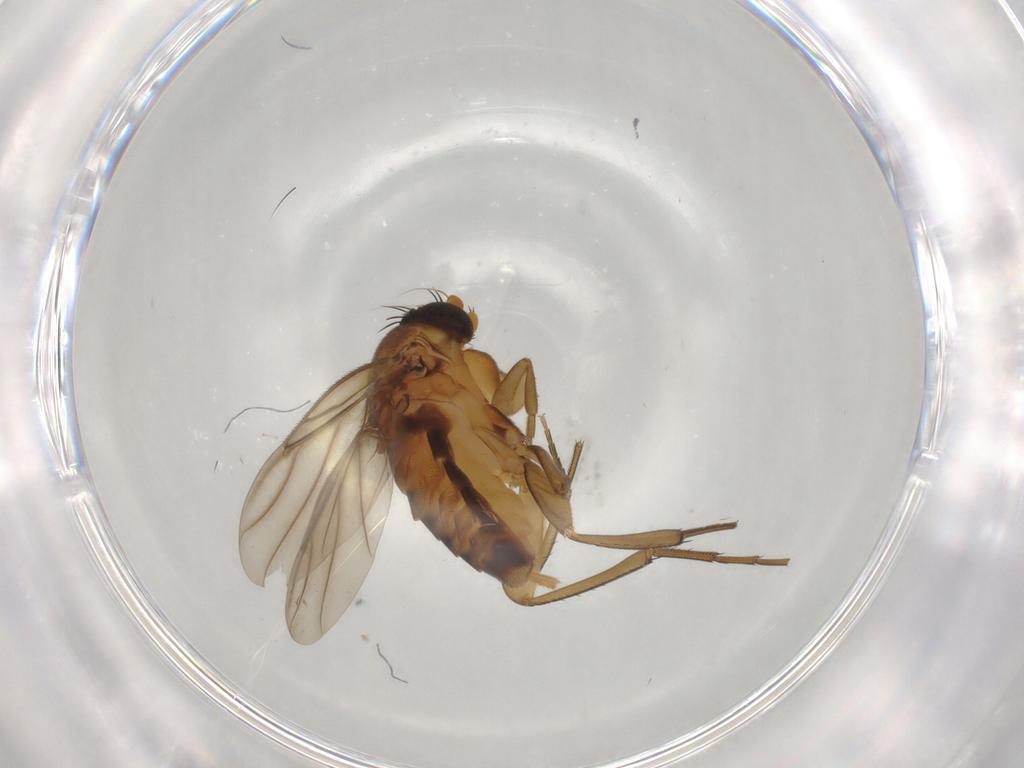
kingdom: Animalia
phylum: Arthropoda
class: Insecta
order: Diptera
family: Phoridae
